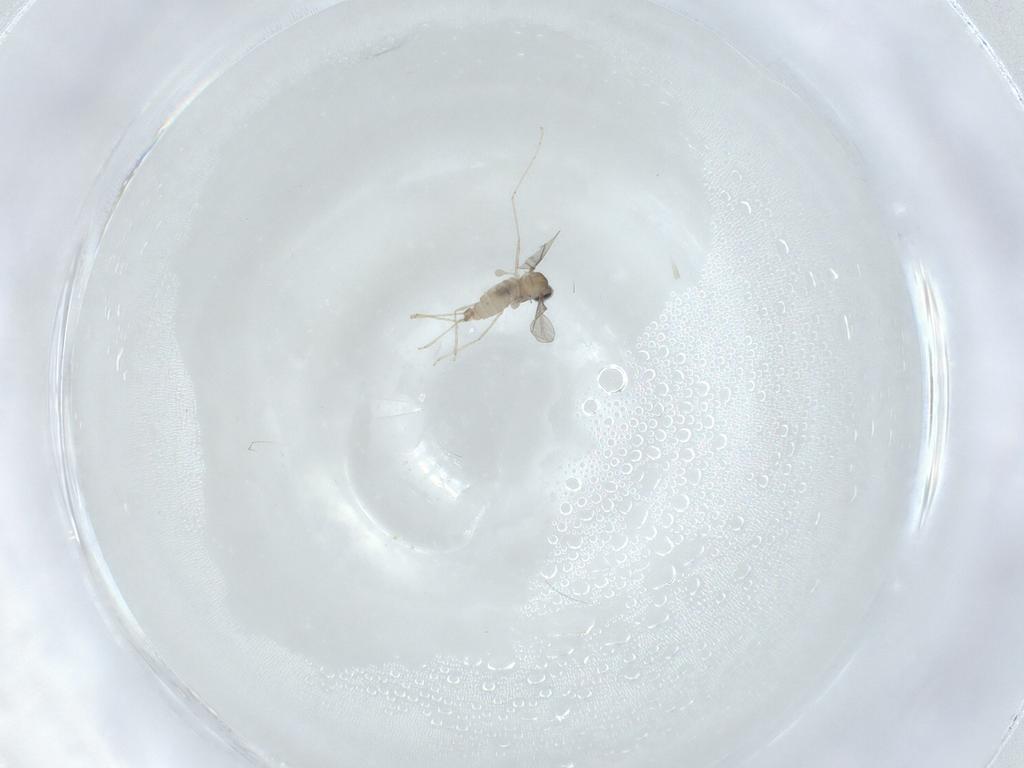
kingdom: Animalia
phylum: Arthropoda
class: Insecta
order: Diptera
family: Cecidomyiidae
